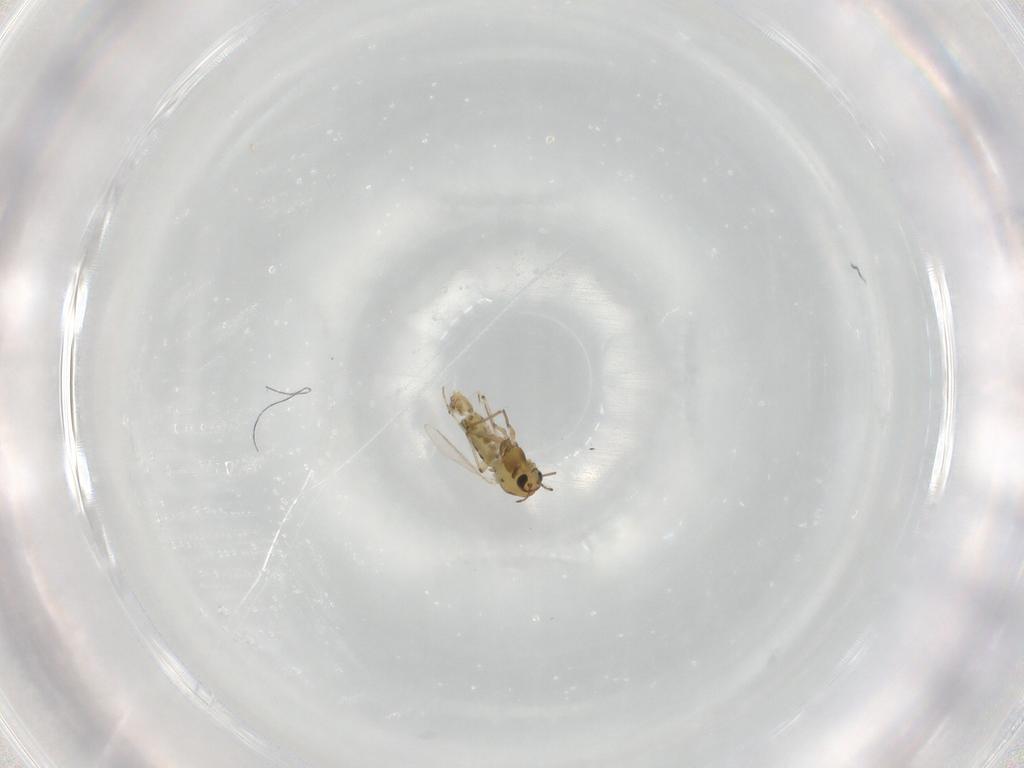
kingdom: Animalia
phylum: Arthropoda
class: Insecta
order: Diptera
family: Chironomidae
